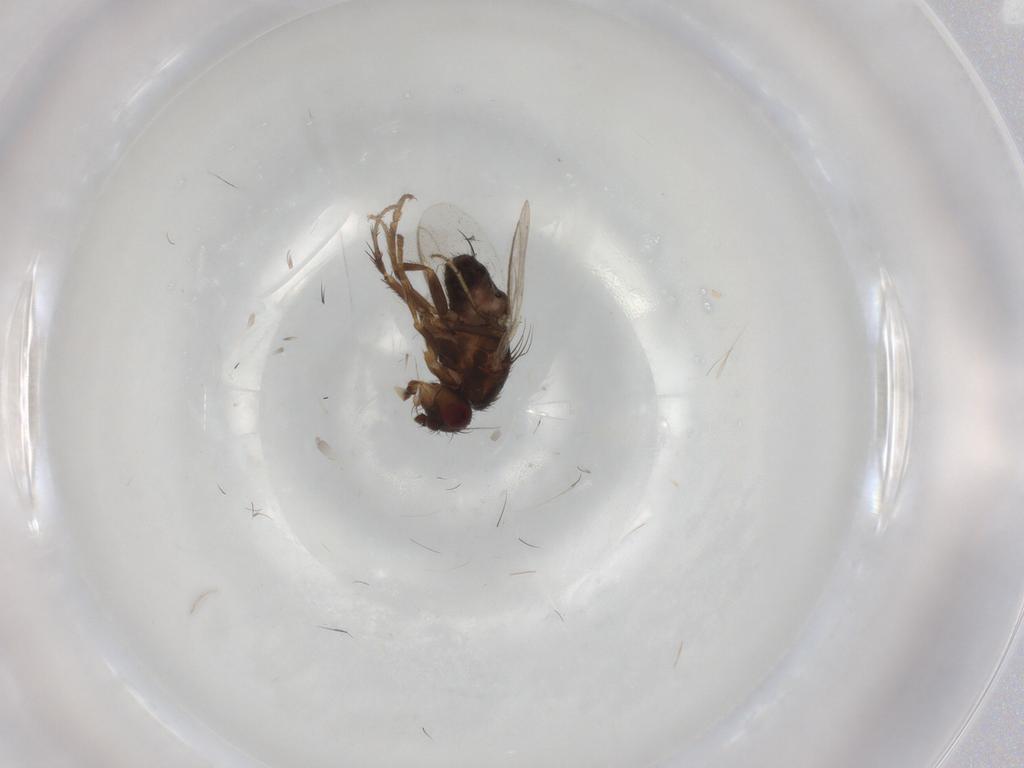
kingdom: Animalia
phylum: Arthropoda
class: Insecta
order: Diptera
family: Sphaeroceridae
